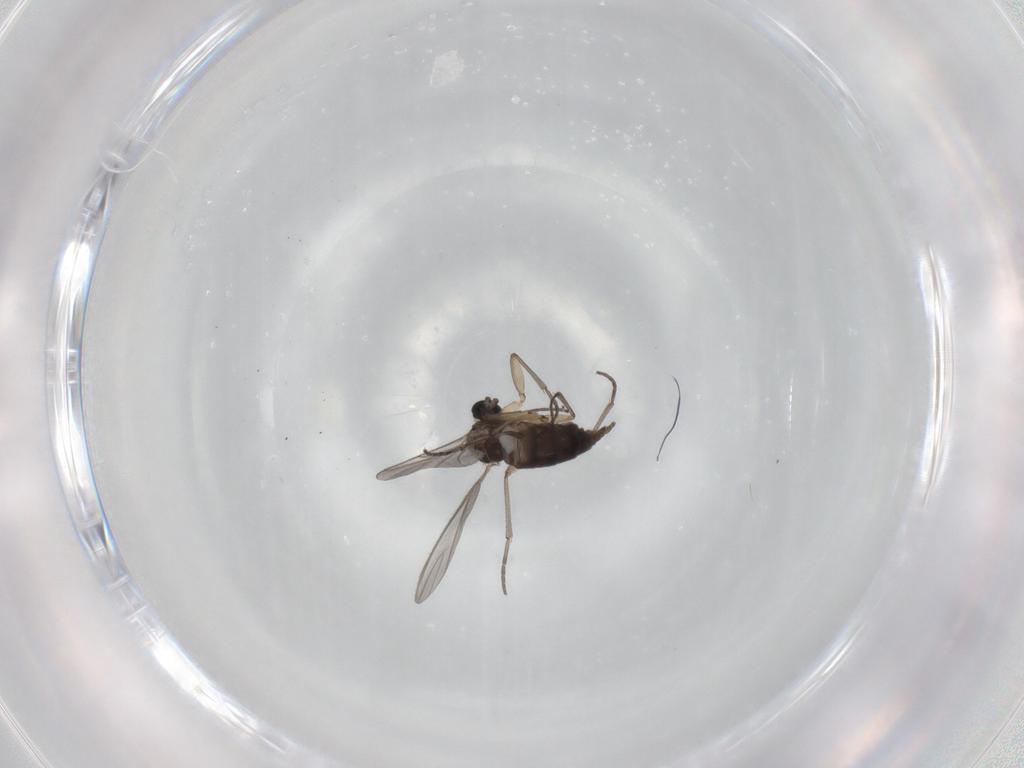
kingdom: Animalia
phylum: Arthropoda
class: Insecta
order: Diptera
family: Sciaridae
